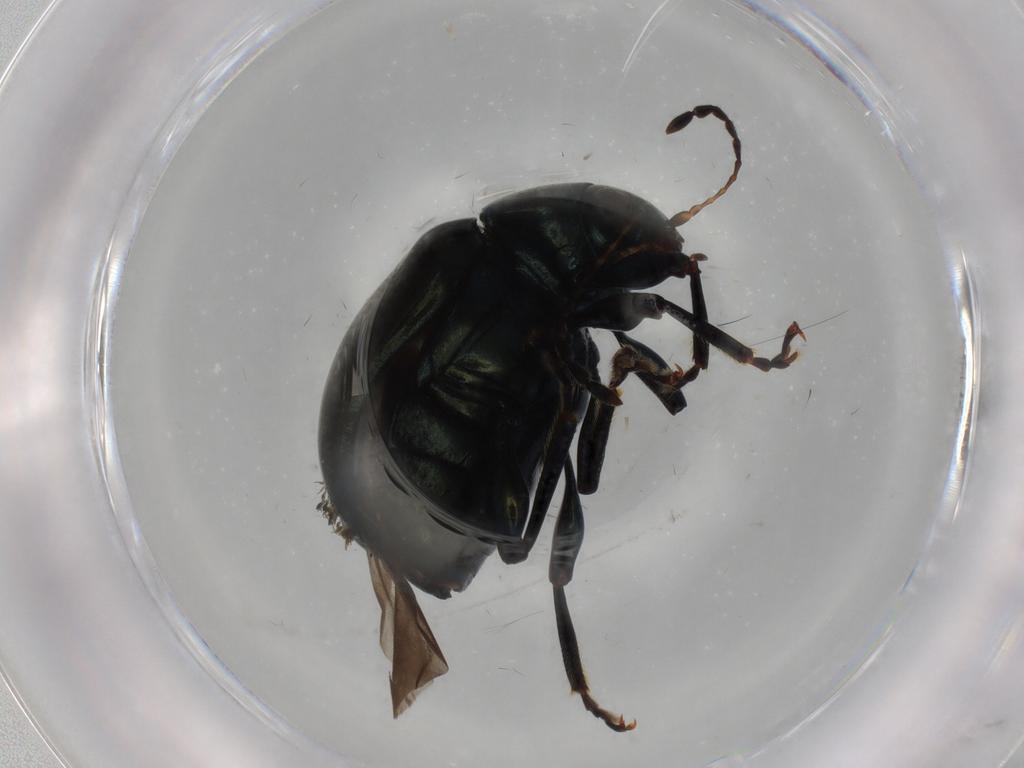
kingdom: Animalia
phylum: Arthropoda
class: Insecta
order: Coleoptera
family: Chrysomelidae
